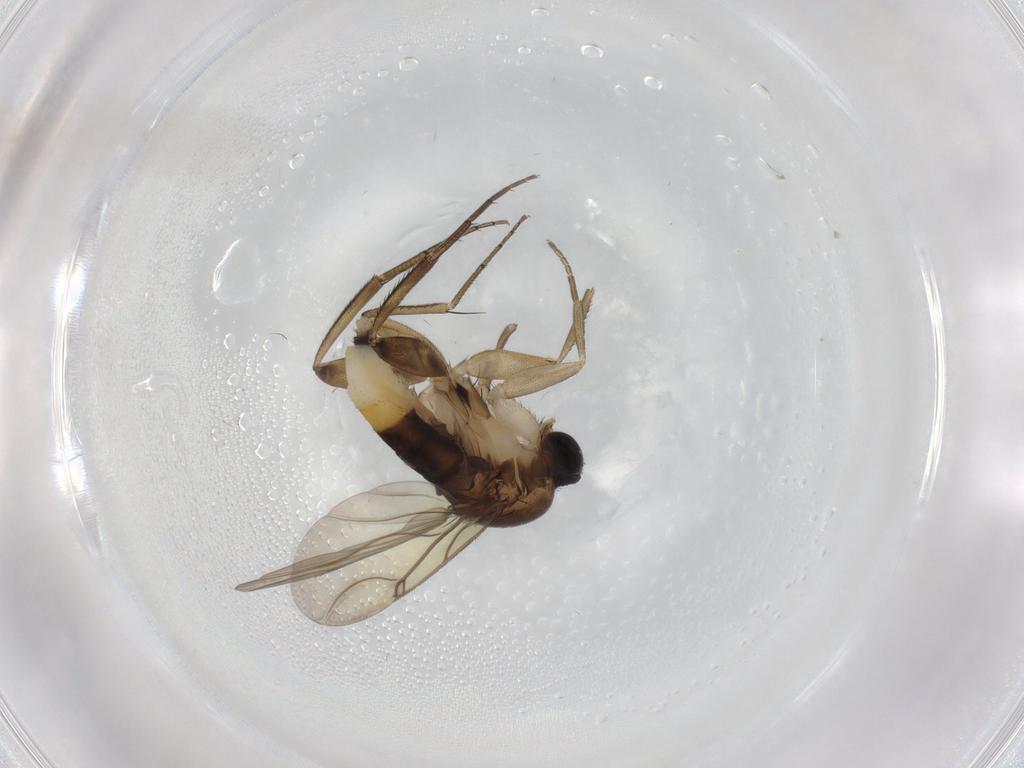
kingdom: Animalia
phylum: Arthropoda
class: Insecta
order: Diptera
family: Phoridae
